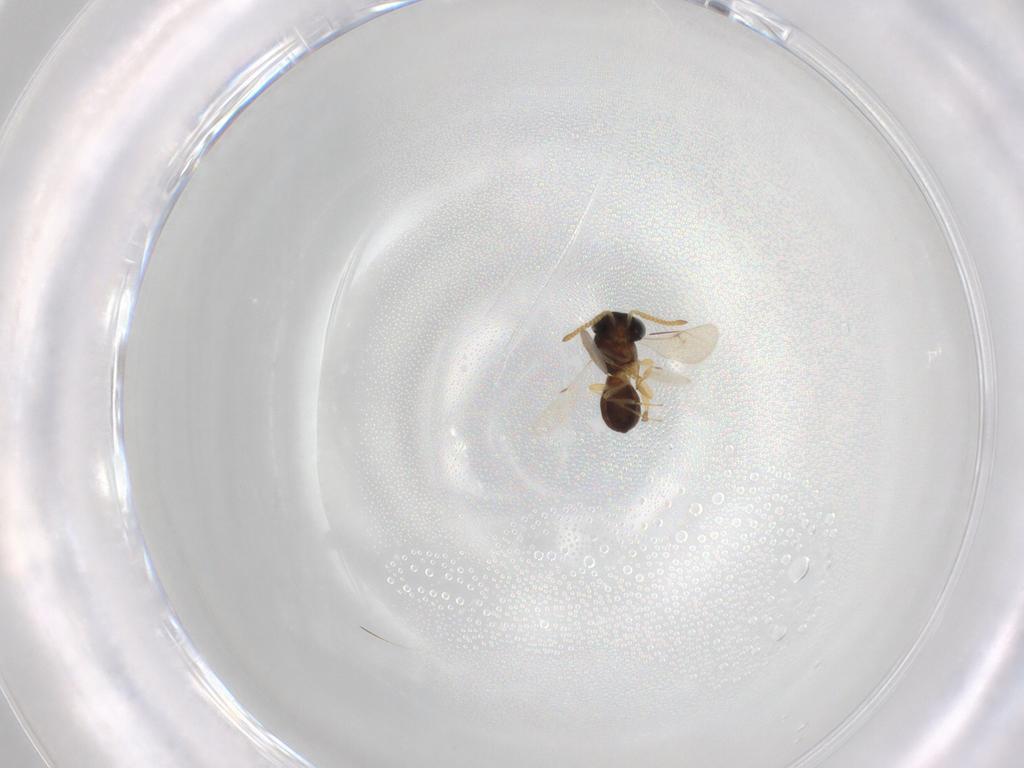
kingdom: Animalia
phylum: Arthropoda
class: Insecta
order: Hymenoptera
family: Scelionidae
